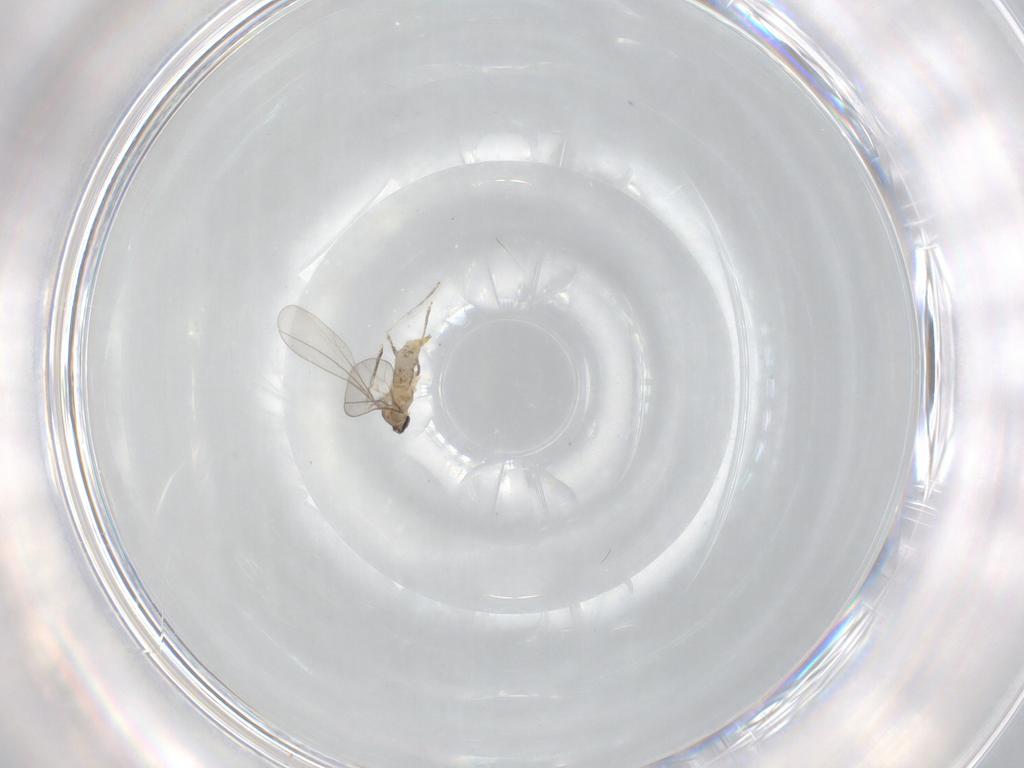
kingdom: Animalia
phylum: Arthropoda
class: Insecta
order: Diptera
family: Cecidomyiidae
